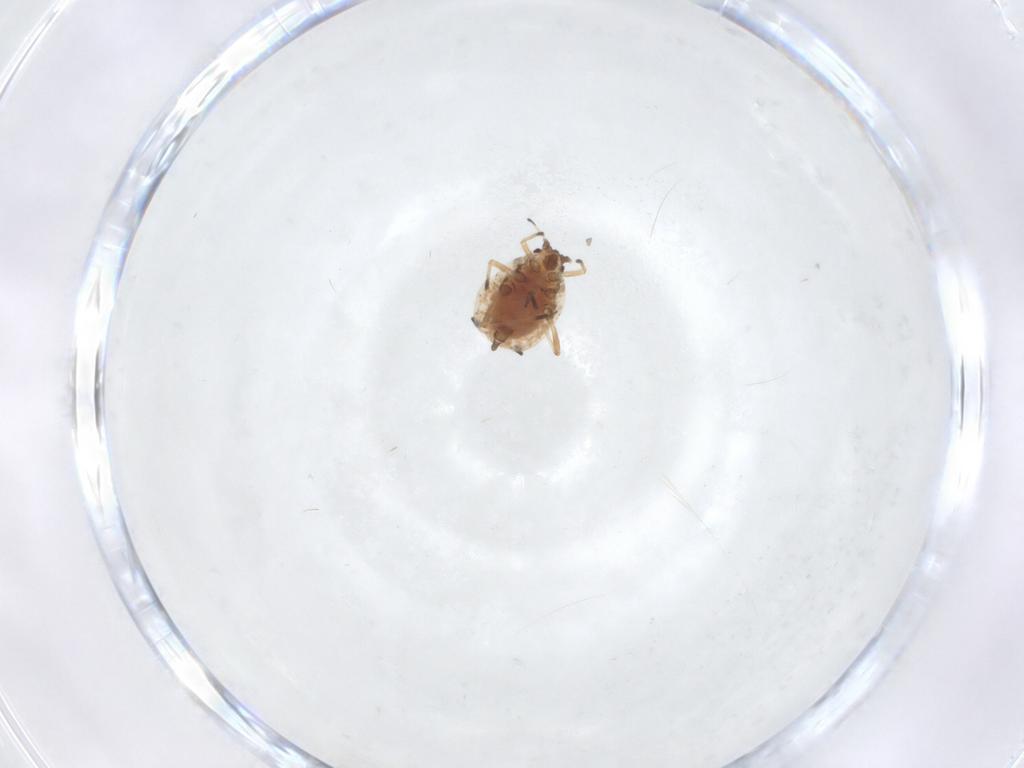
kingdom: Animalia
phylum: Arthropoda
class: Insecta
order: Hemiptera
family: Aphididae
